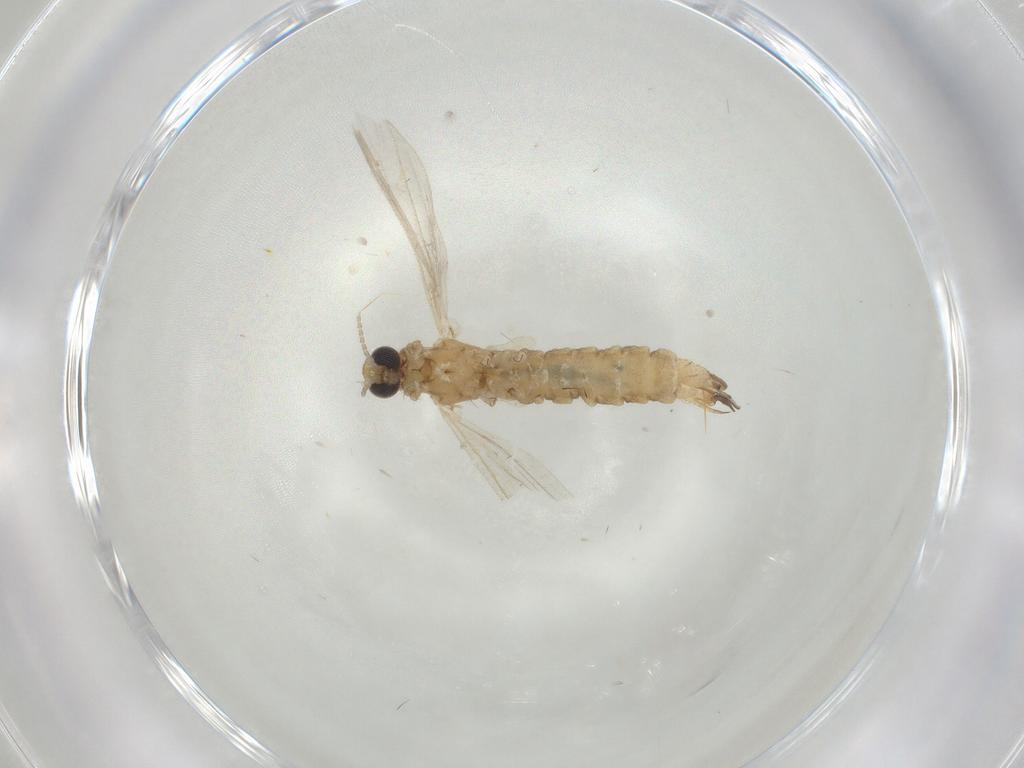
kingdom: Animalia
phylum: Arthropoda
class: Insecta
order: Diptera
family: Limoniidae
